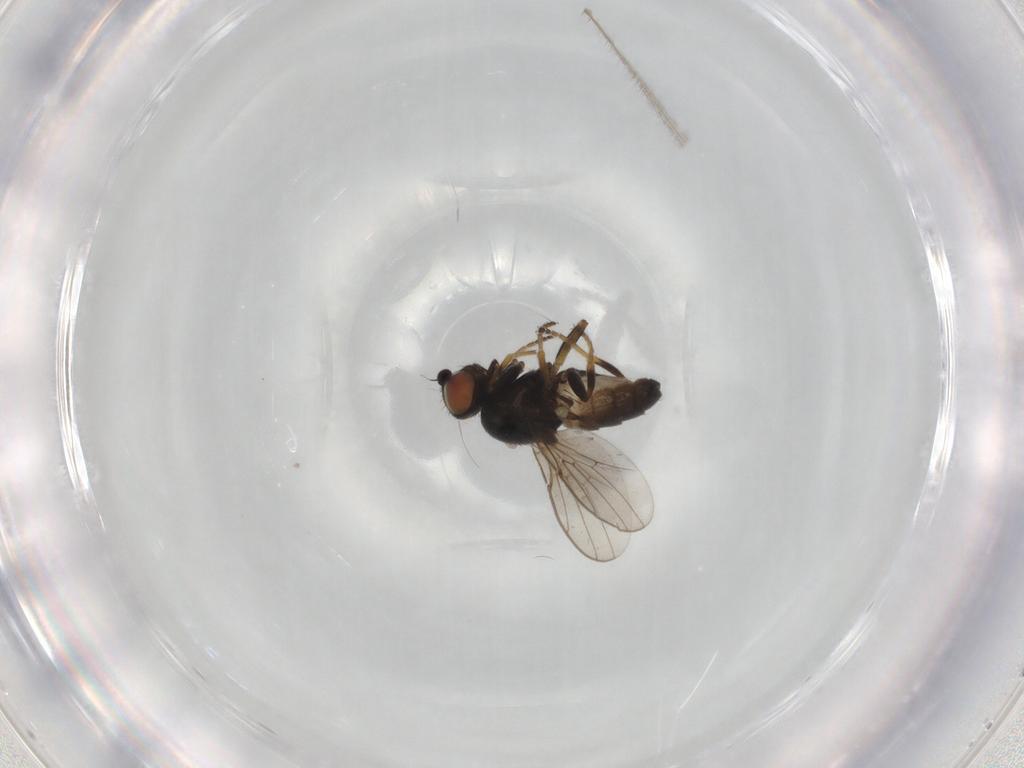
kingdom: Animalia
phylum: Arthropoda
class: Insecta
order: Diptera
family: Chloropidae
